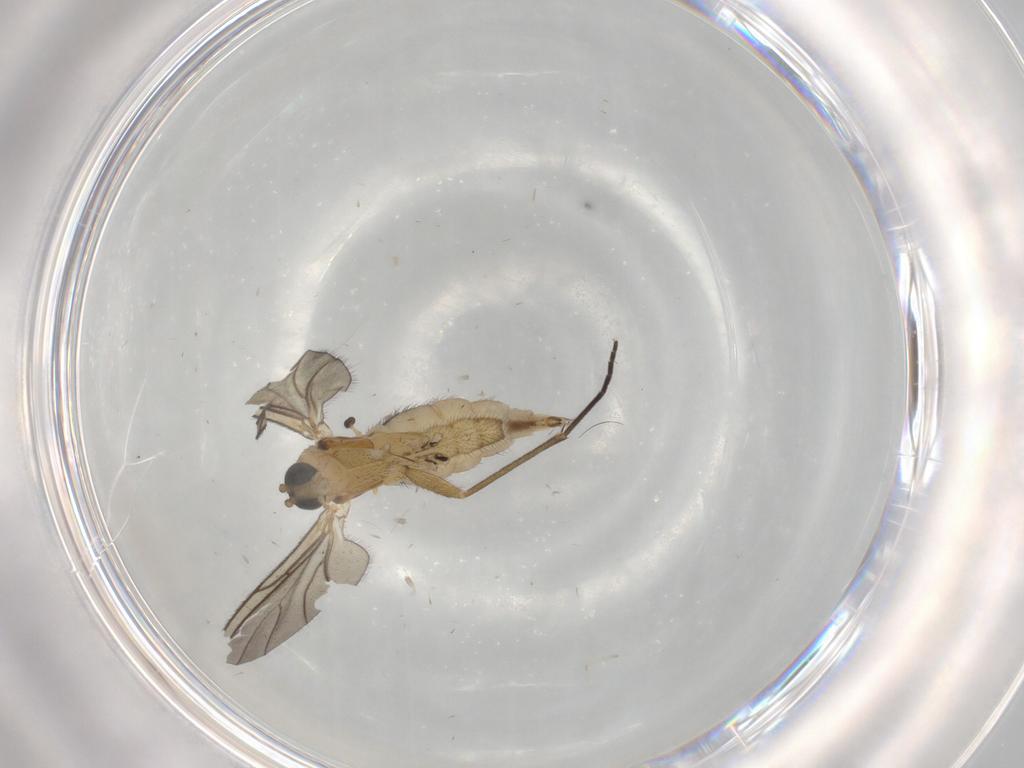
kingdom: Animalia
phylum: Arthropoda
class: Insecta
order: Diptera
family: Sciaridae
